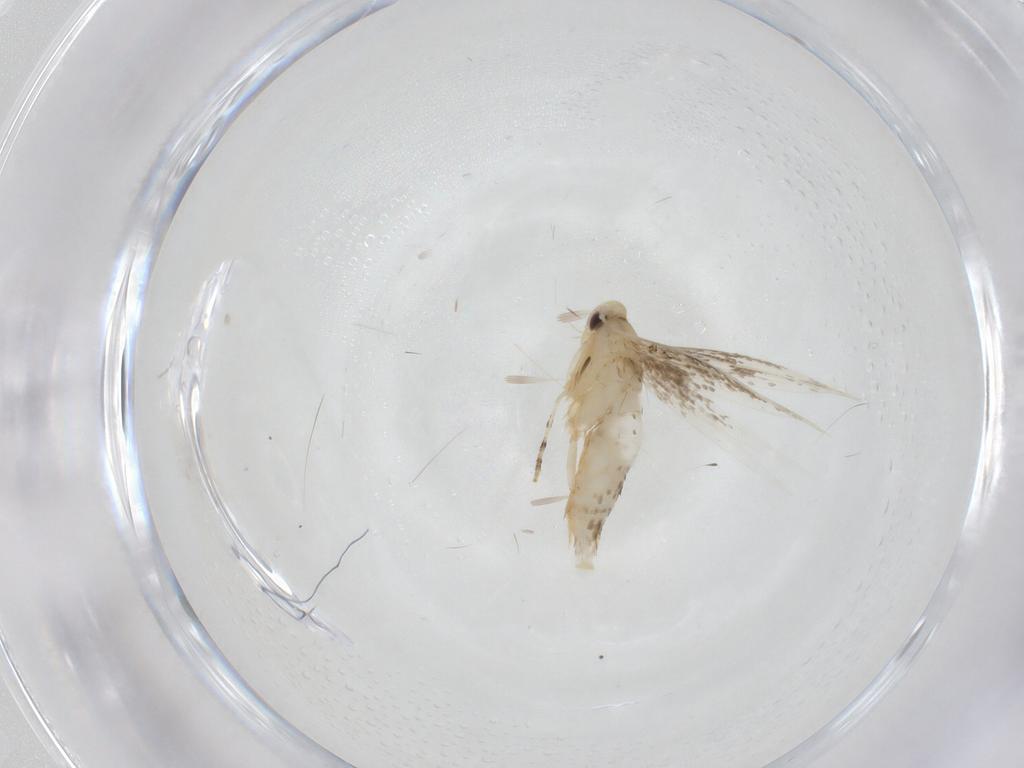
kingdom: Animalia
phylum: Arthropoda
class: Insecta
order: Lepidoptera
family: Gracillariidae
